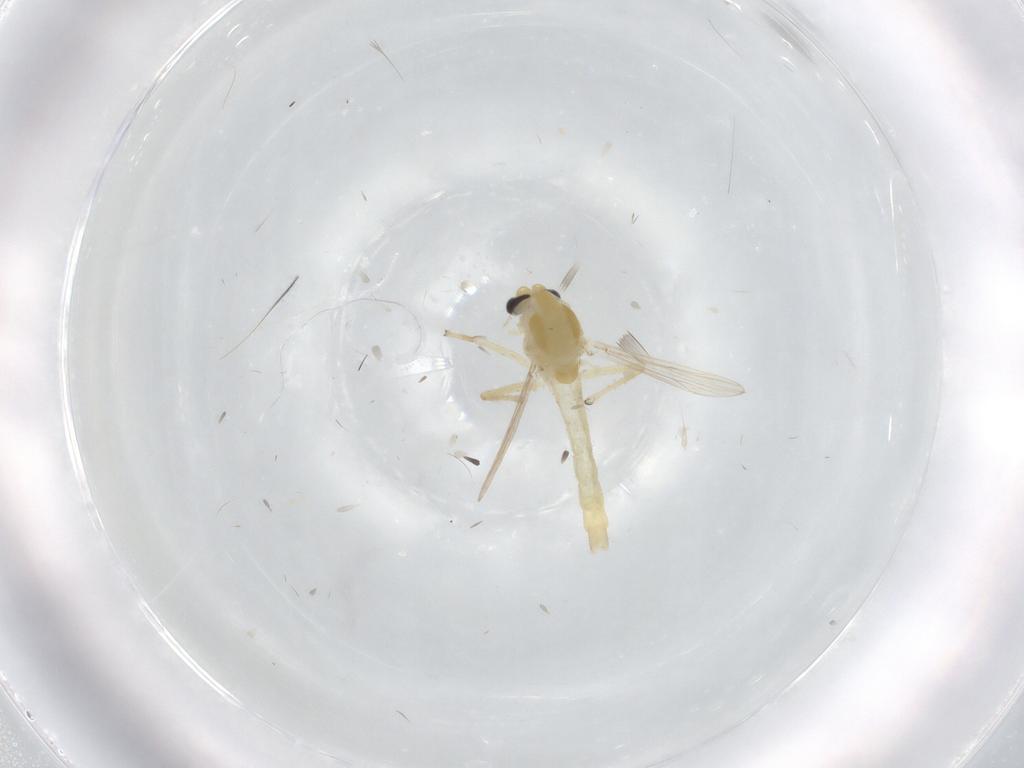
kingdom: Animalia
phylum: Arthropoda
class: Insecta
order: Diptera
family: Chironomidae
